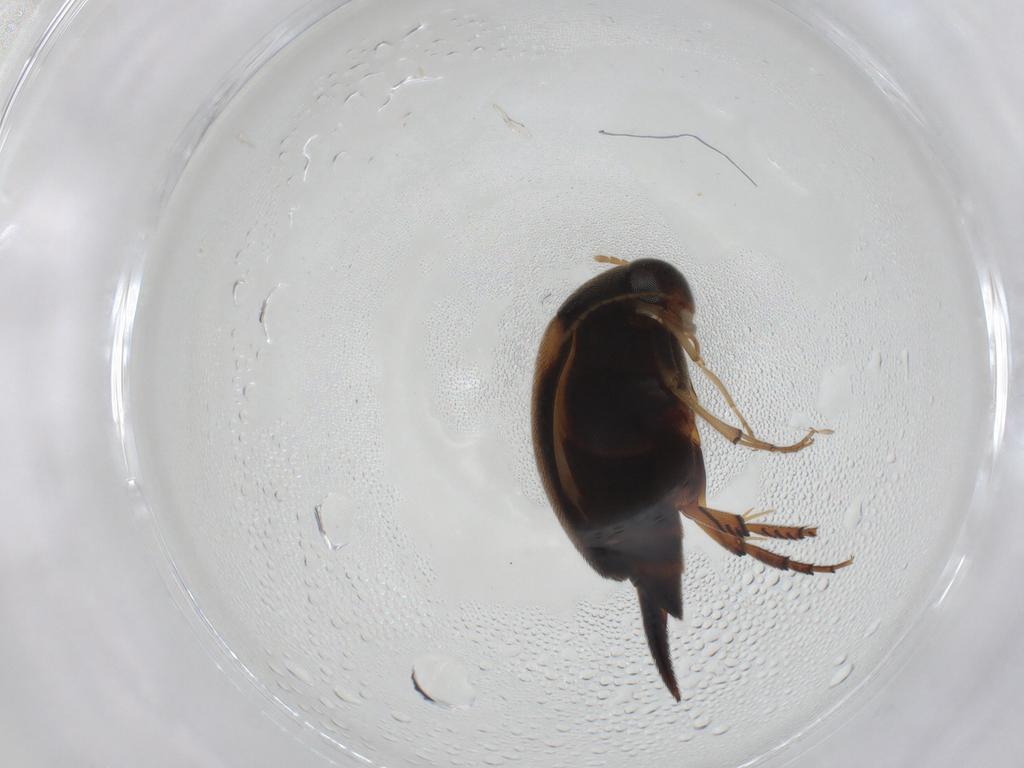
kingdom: Animalia
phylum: Arthropoda
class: Insecta
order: Coleoptera
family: Mordellidae
